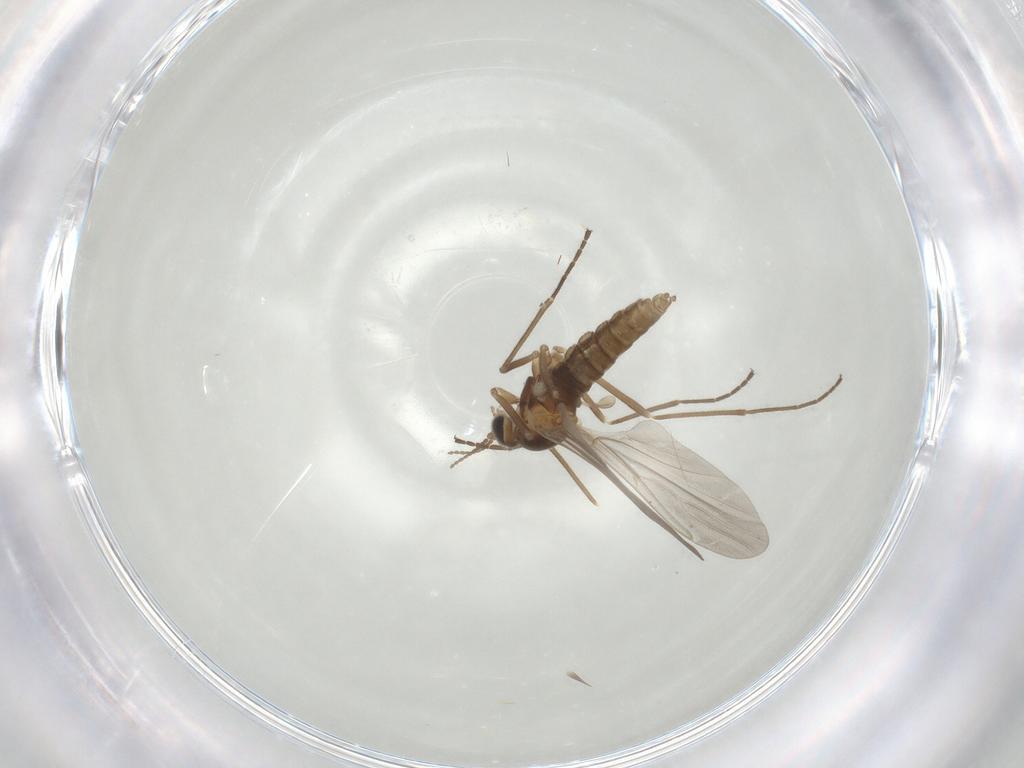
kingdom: Animalia
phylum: Arthropoda
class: Insecta
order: Diptera
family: Cecidomyiidae
